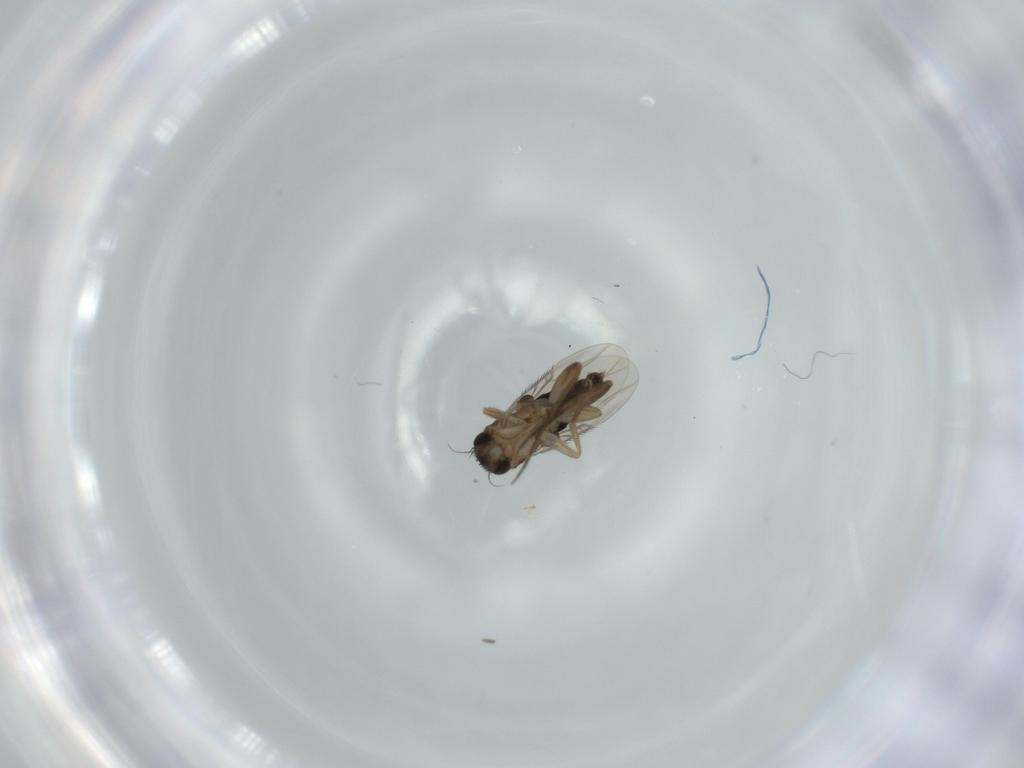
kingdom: Animalia
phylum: Arthropoda
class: Insecta
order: Diptera
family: Phoridae
